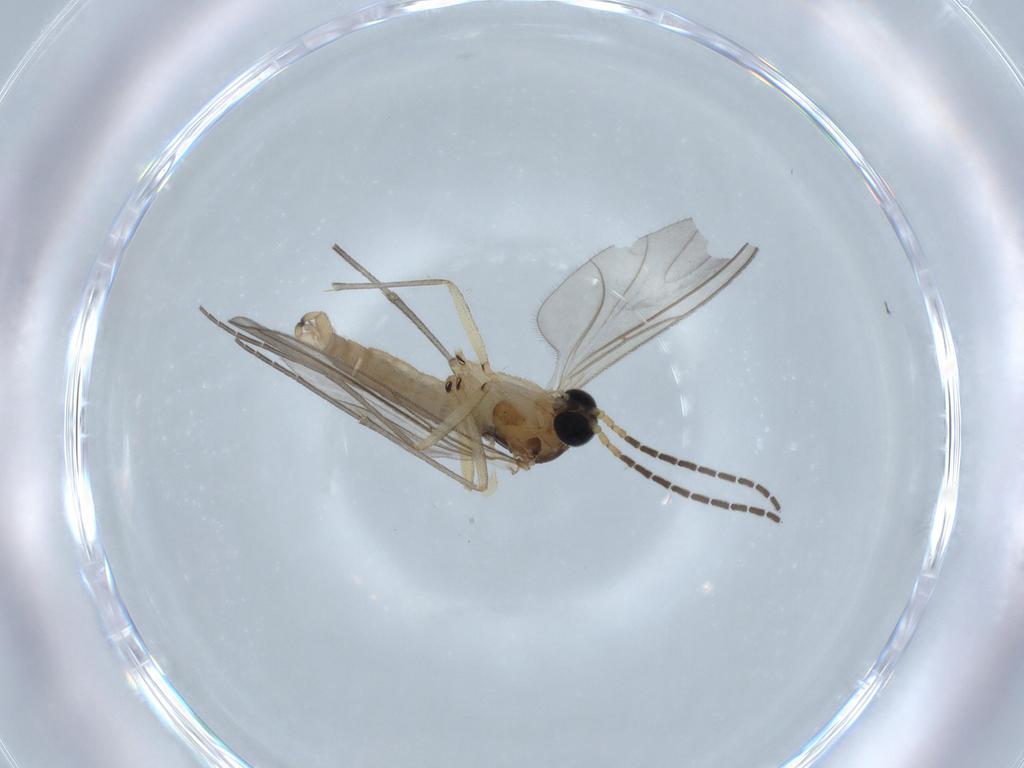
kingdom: Animalia
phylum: Arthropoda
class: Insecta
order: Diptera
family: Sciaridae
